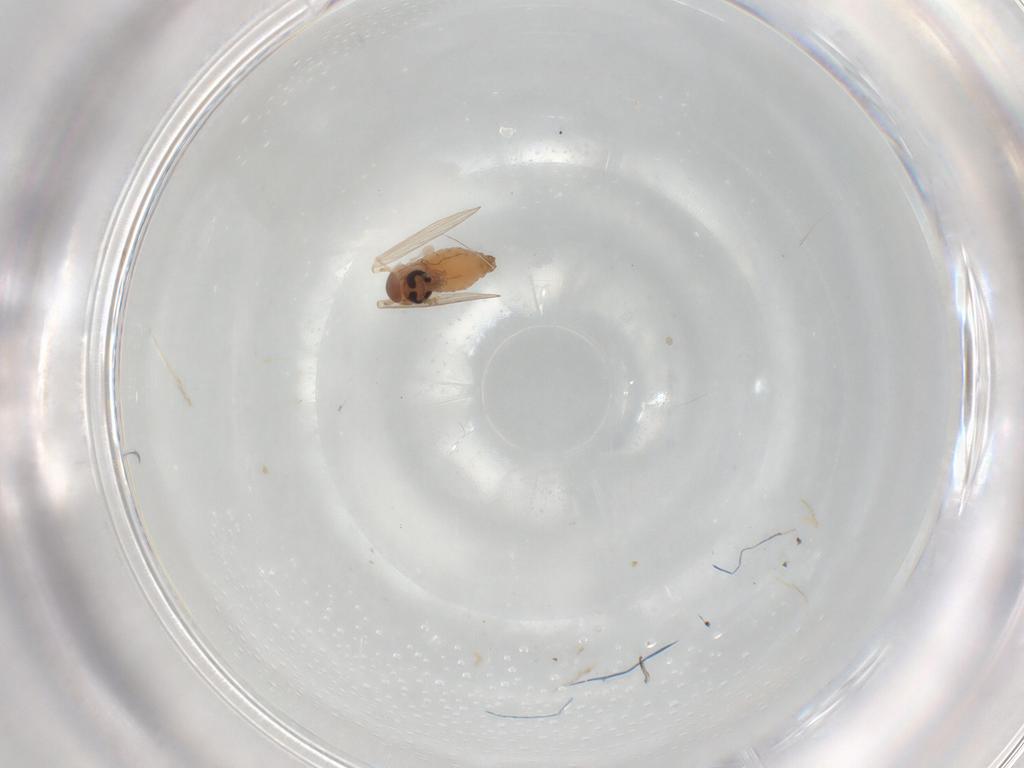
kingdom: Animalia
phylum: Arthropoda
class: Insecta
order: Diptera
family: Psychodidae
